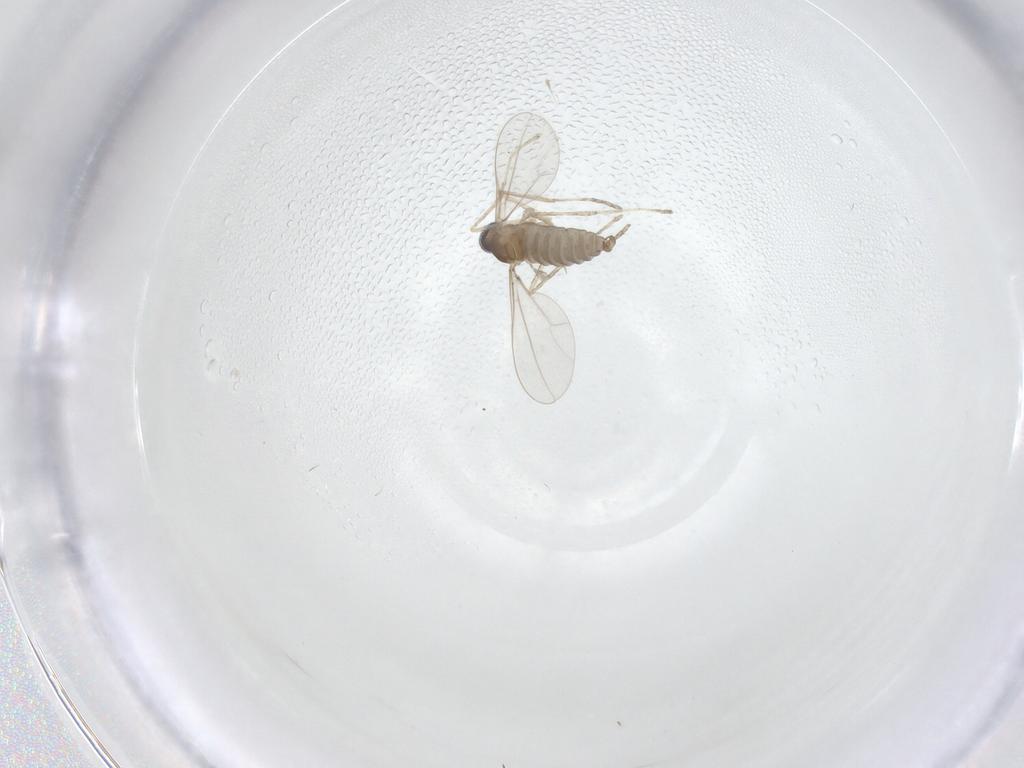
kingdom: Animalia
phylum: Arthropoda
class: Insecta
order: Diptera
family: Cecidomyiidae
